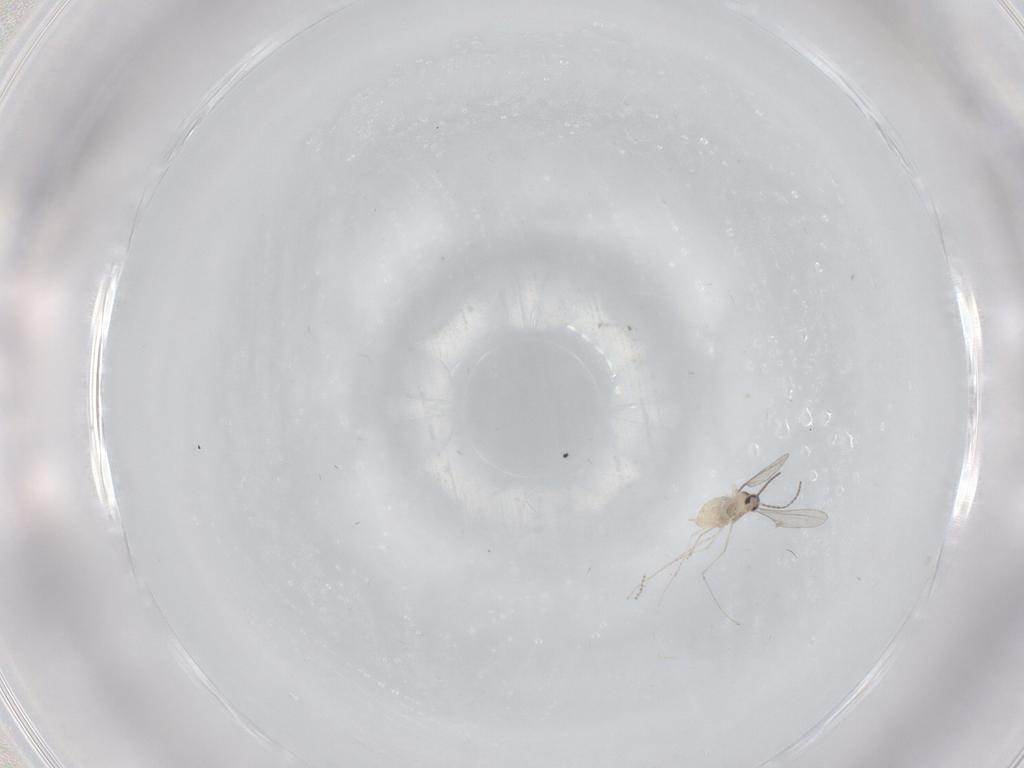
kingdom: Animalia
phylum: Arthropoda
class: Insecta
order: Diptera
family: Cecidomyiidae
